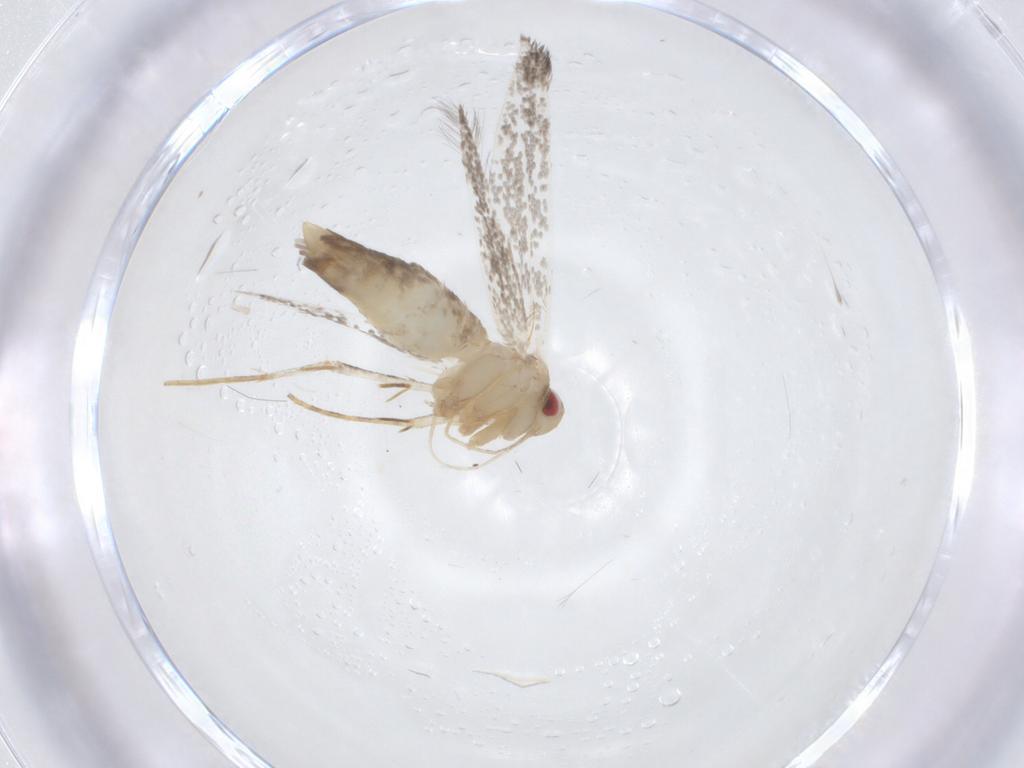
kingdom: Animalia
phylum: Arthropoda
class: Insecta
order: Lepidoptera
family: Cosmopterigidae
